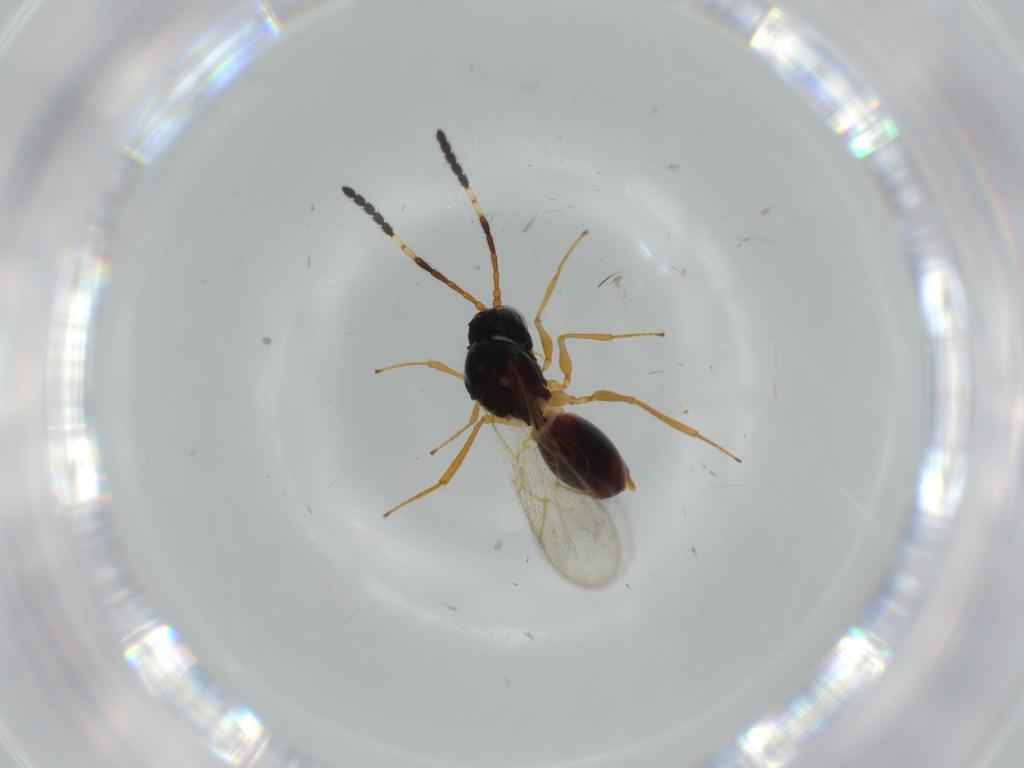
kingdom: Animalia
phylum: Arthropoda
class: Insecta
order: Hymenoptera
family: Figitidae
